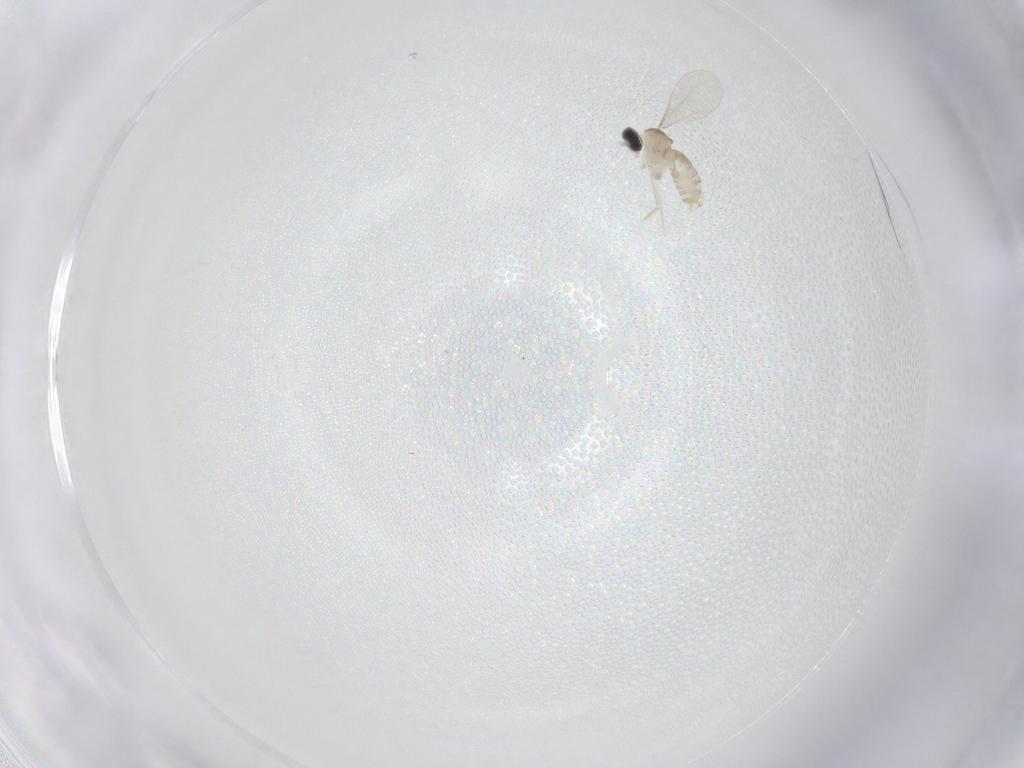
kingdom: Animalia
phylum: Arthropoda
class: Insecta
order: Diptera
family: Cecidomyiidae
